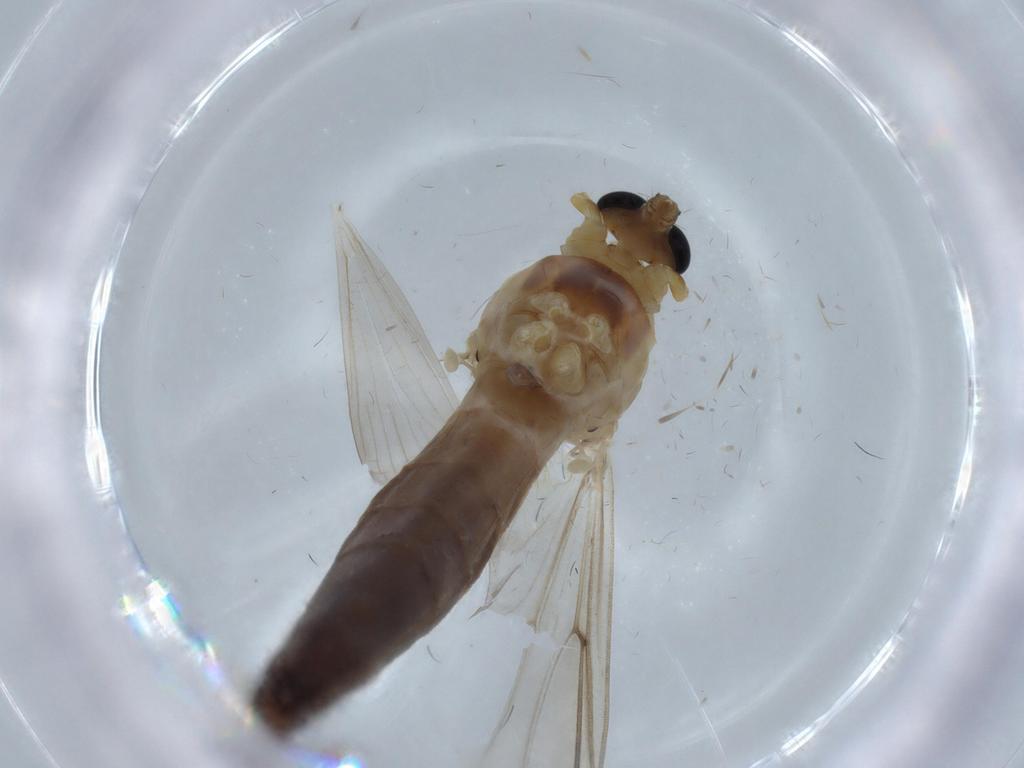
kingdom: Animalia
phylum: Arthropoda
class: Insecta
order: Diptera
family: Chironomidae
